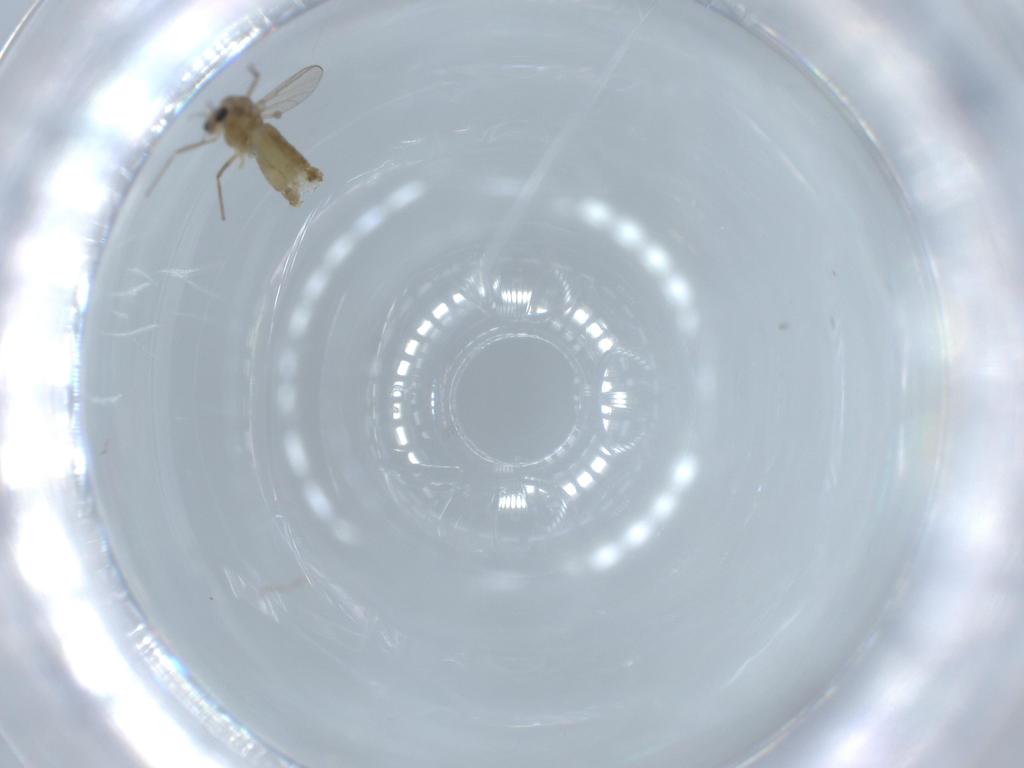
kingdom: Animalia
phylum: Arthropoda
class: Insecta
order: Diptera
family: Chironomidae
